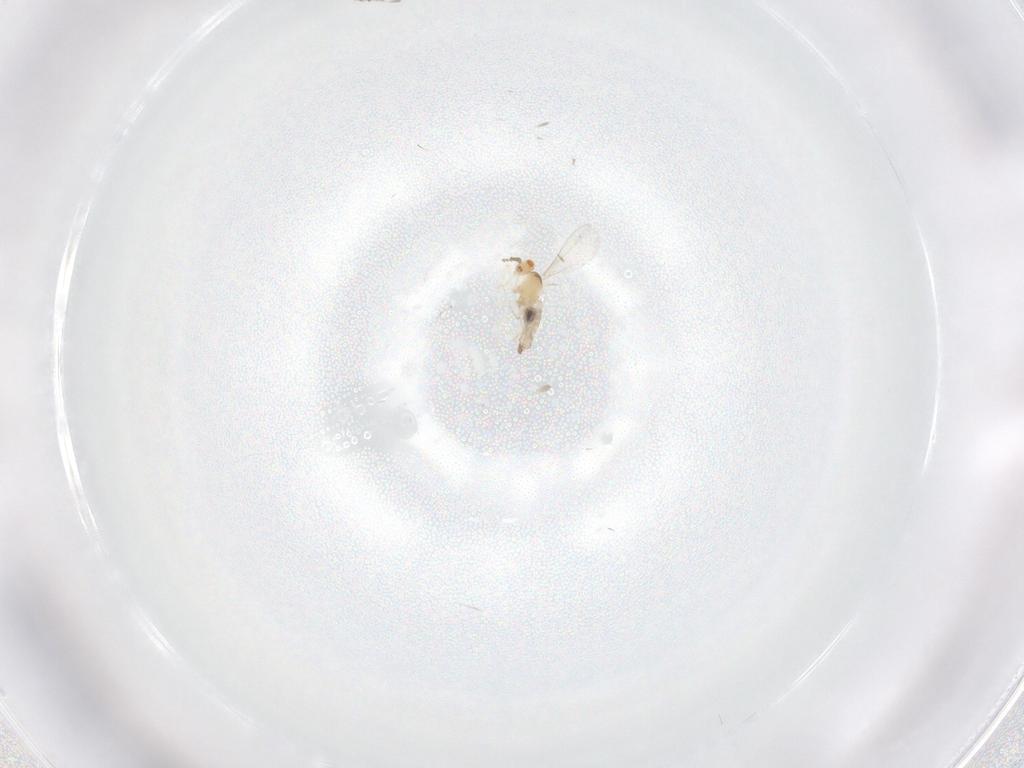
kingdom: Animalia
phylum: Arthropoda
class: Insecta
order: Diptera
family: Cecidomyiidae
